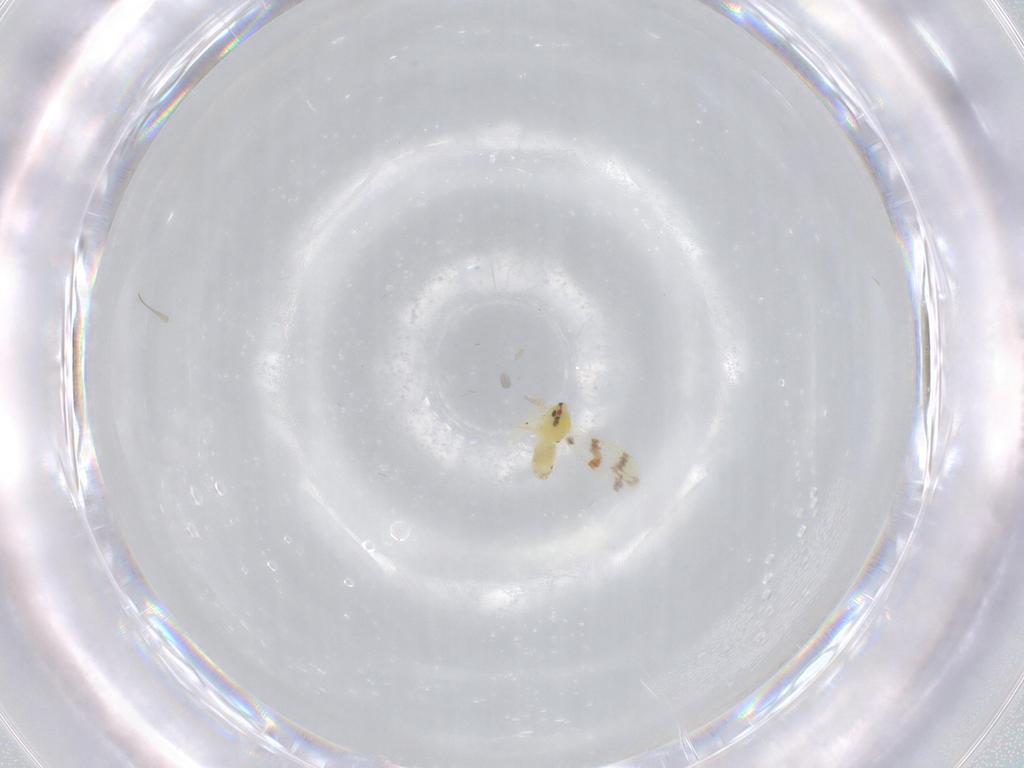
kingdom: Animalia
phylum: Arthropoda
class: Insecta
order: Hemiptera
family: Aleyrodidae
